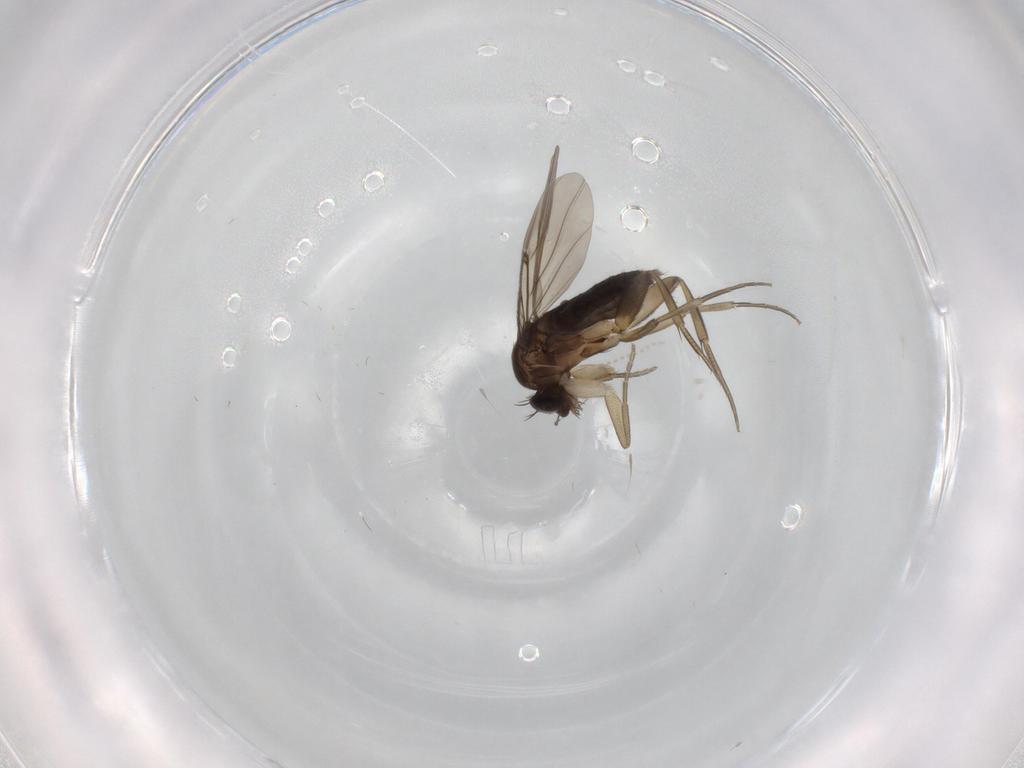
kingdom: Animalia
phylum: Arthropoda
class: Insecta
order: Diptera
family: Phoridae
